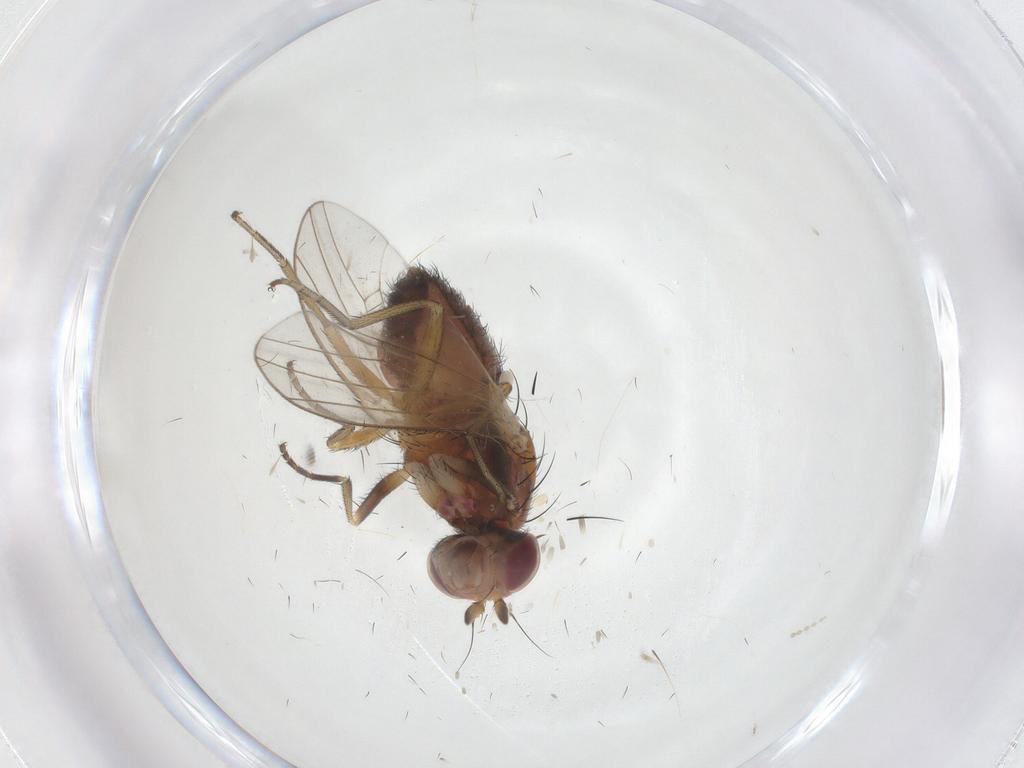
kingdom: Animalia
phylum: Arthropoda
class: Insecta
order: Diptera
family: Heleomyzidae
